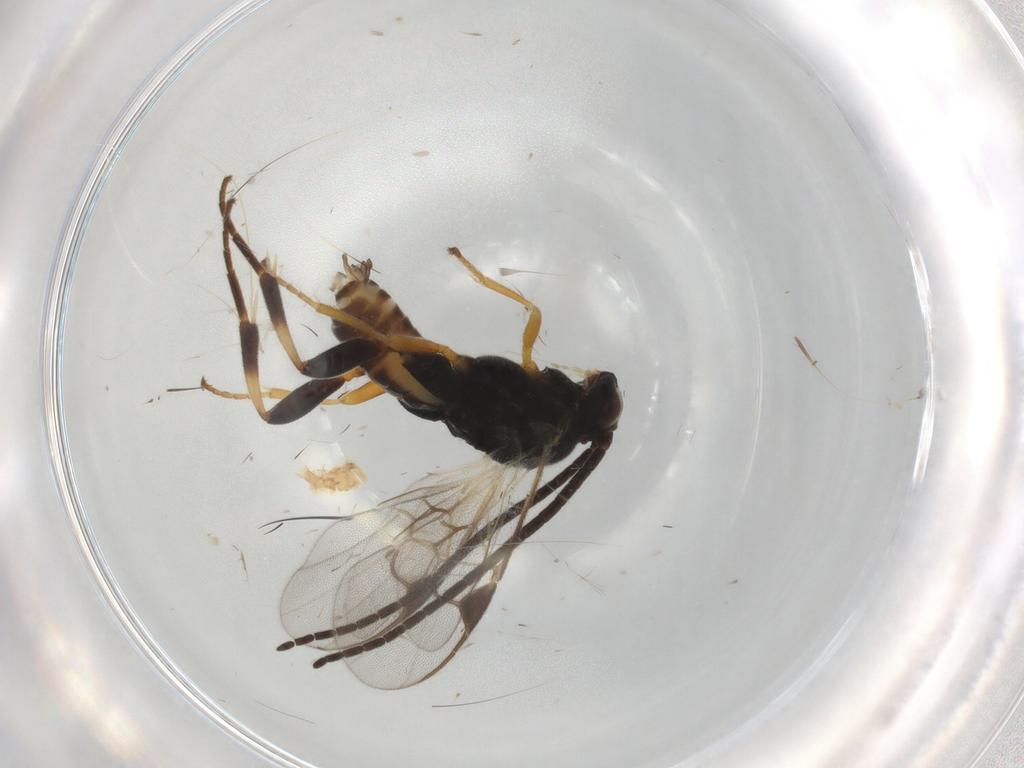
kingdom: Animalia
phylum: Arthropoda
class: Insecta
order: Hymenoptera
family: Braconidae
